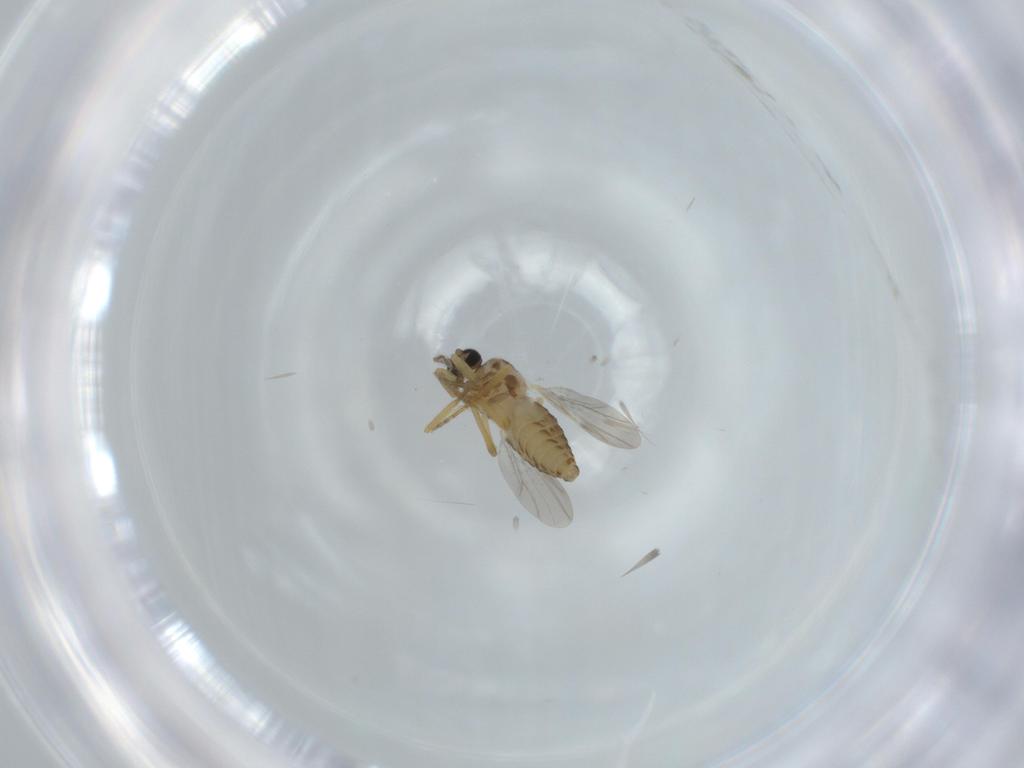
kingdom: Animalia
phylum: Arthropoda
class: Insecta
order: Diptera
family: Ceratopogonidae
